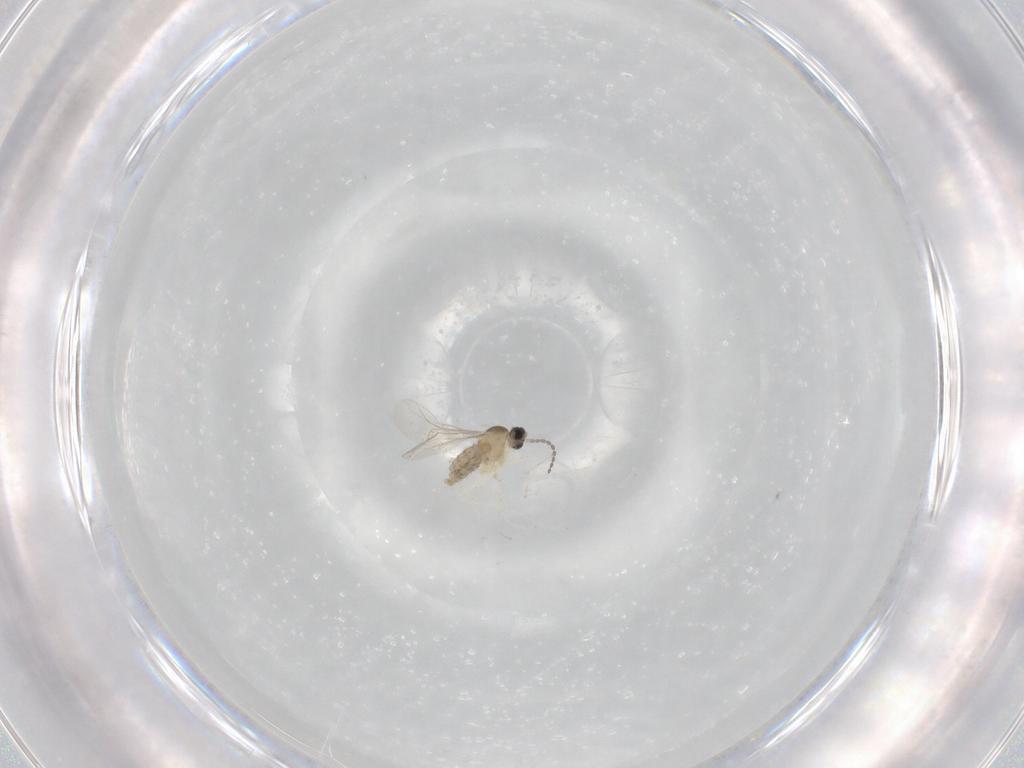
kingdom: Animalia
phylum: Arthropoda
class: Insecta
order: Diptera
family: Cecidomyiidae
